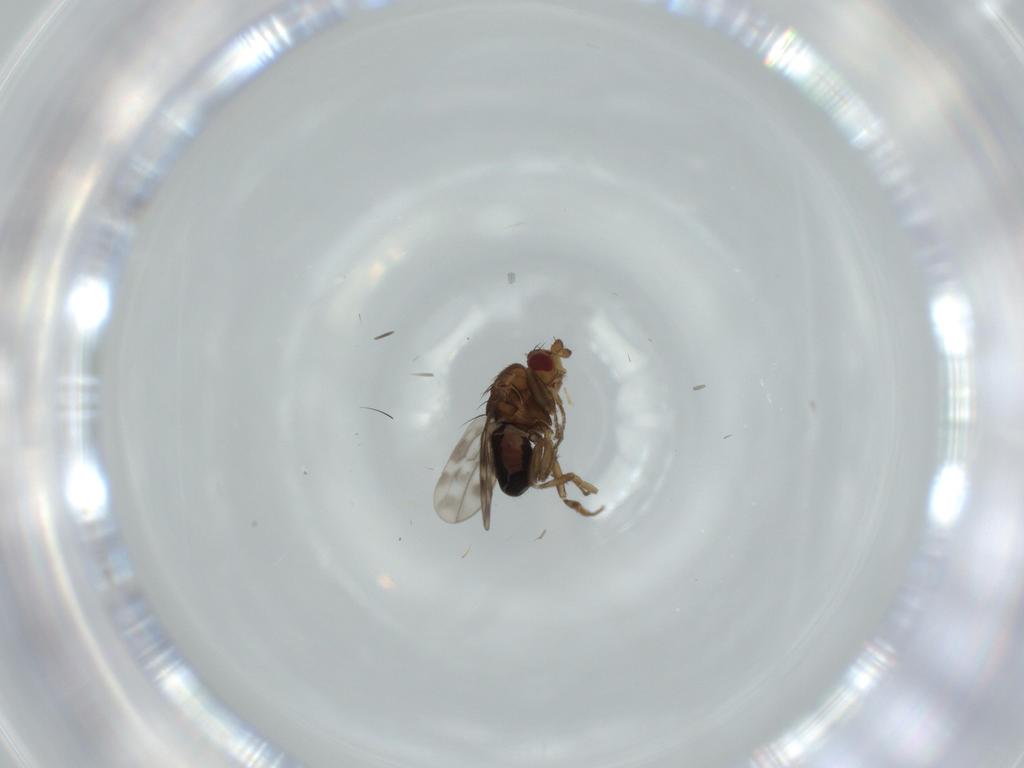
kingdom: Animalia
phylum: Arthropoda
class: Insecta
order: Diptera
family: Sphaeroceridae
